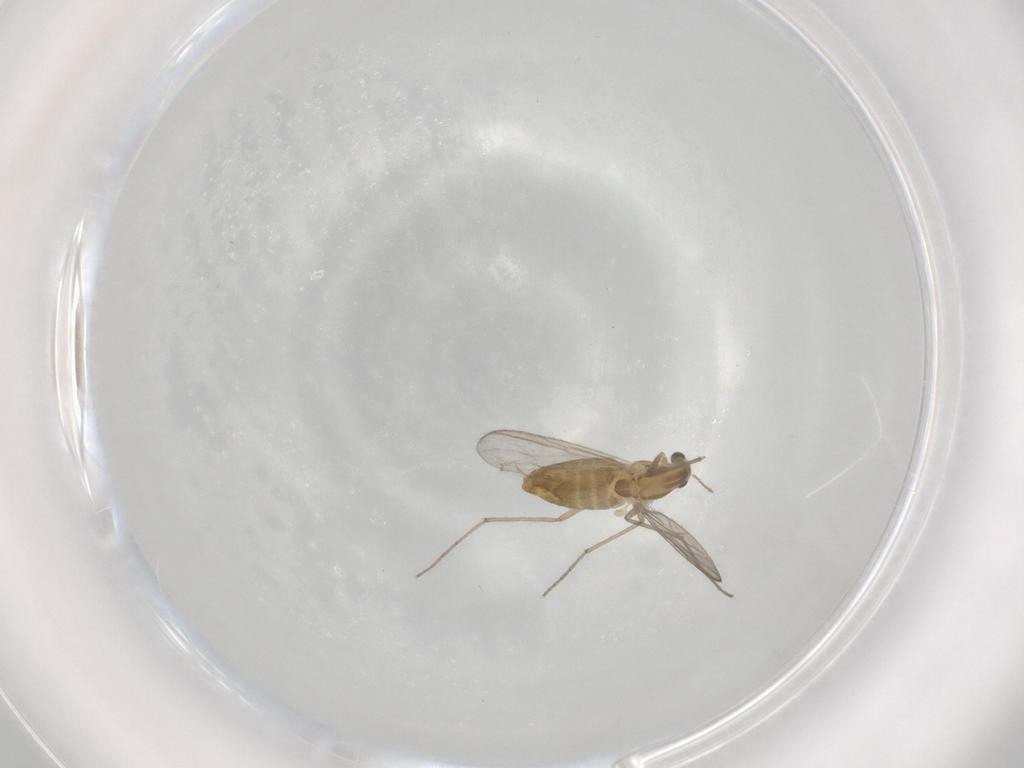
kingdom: Animalia
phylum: Arthropoda
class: Insecta
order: Diptera
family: Chironomidae
